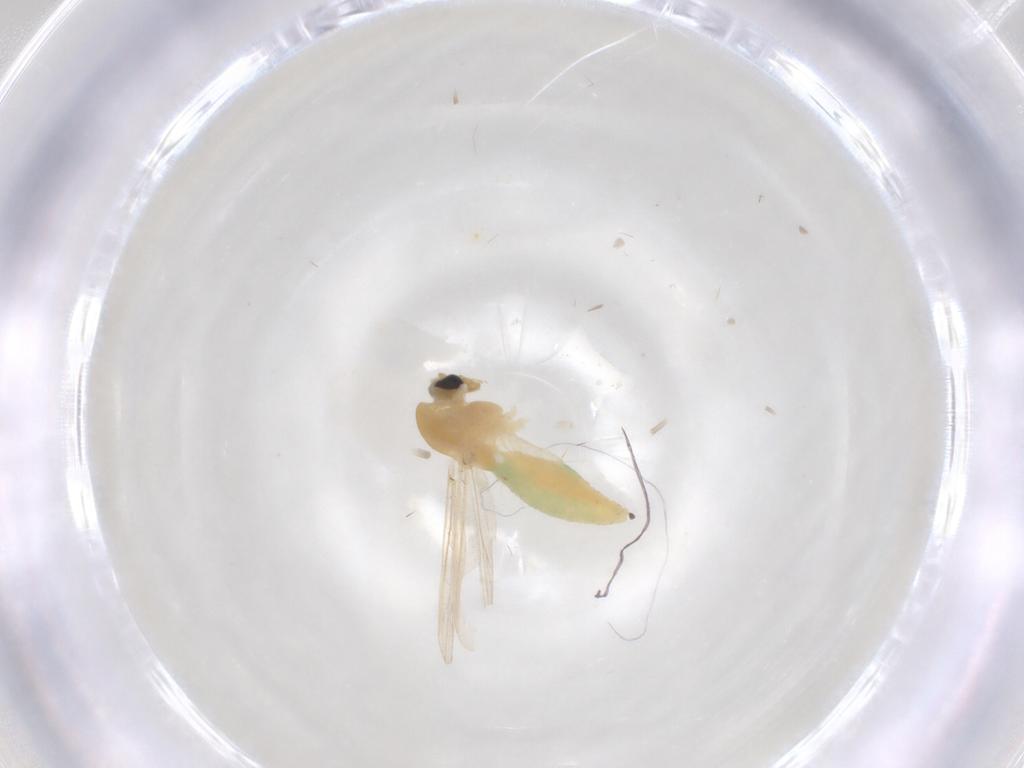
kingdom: Animalia
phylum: Arthropoda
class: Insecta
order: Diptera
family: Chironomidae
